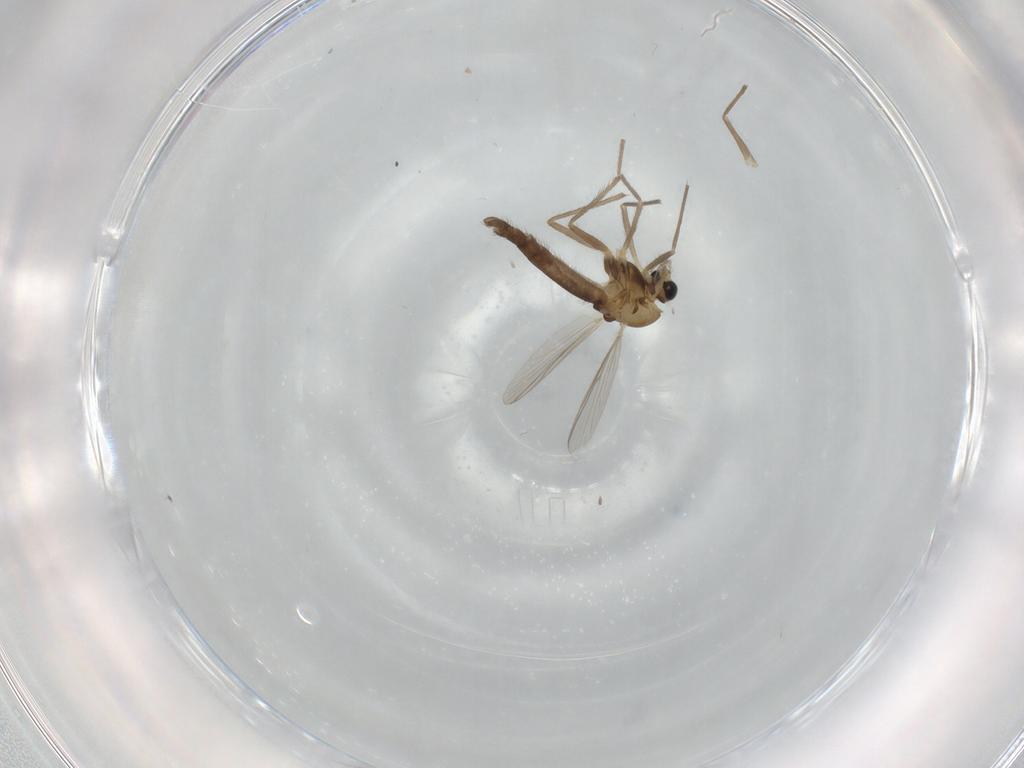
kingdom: Animalia
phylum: Arthropoda
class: Insecta
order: Diptera
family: Chironomidae
